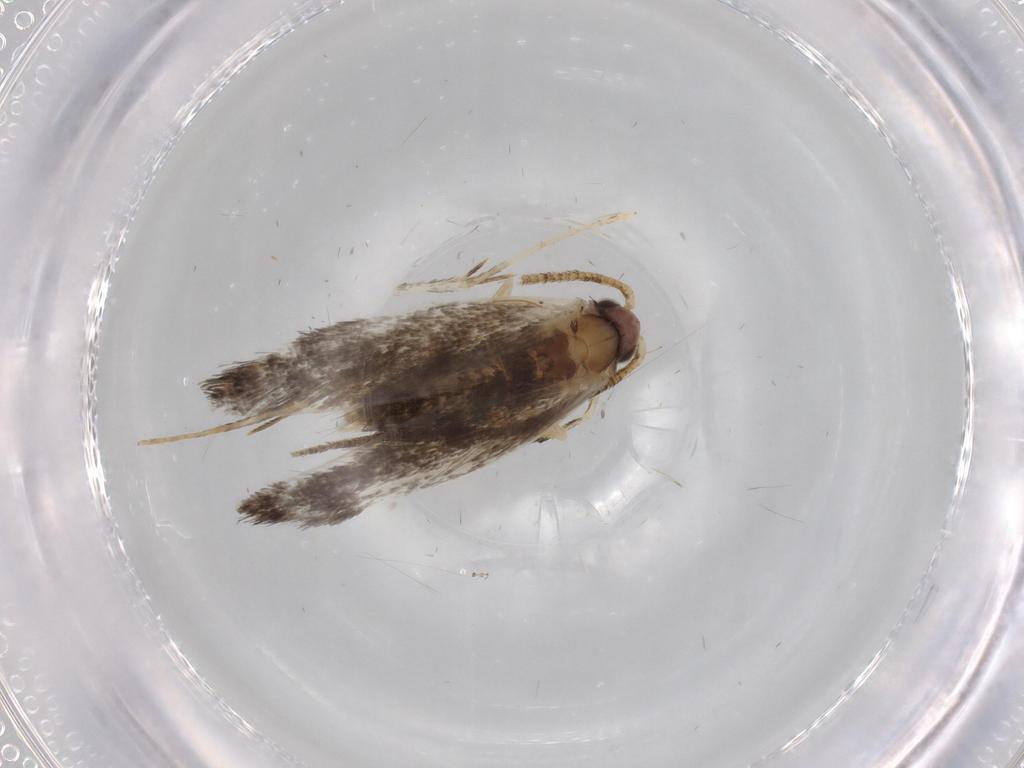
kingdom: Animalia
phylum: Arthropoda
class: Insecta
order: Lepidoptera
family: Tineidae
